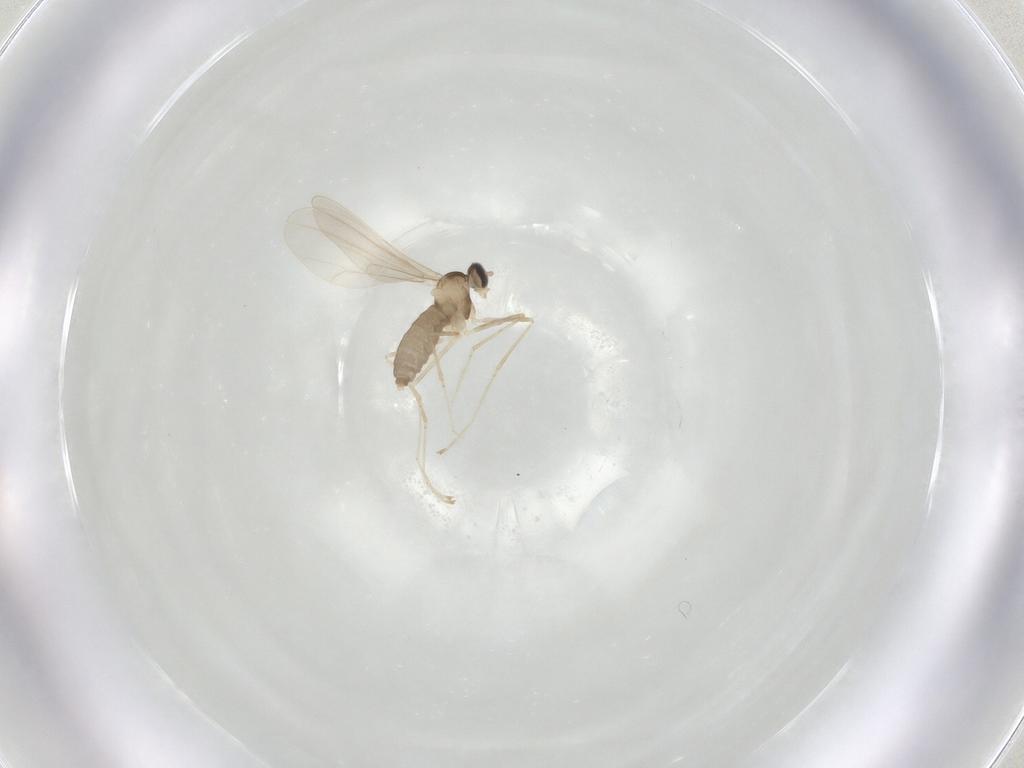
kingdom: Animalia
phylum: Arthropoda
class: Insecta
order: Diptera
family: Cecidomyiidae
